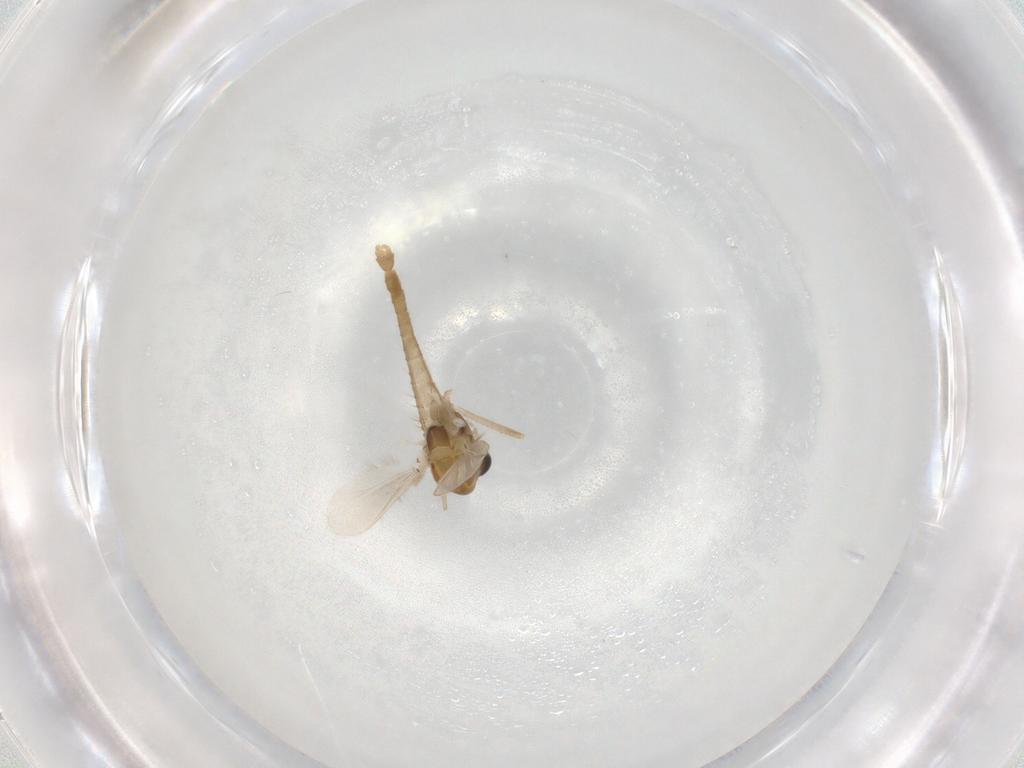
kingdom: Animalia
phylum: Arthropoda
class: Insecta
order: Diptera
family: Chironomidae
